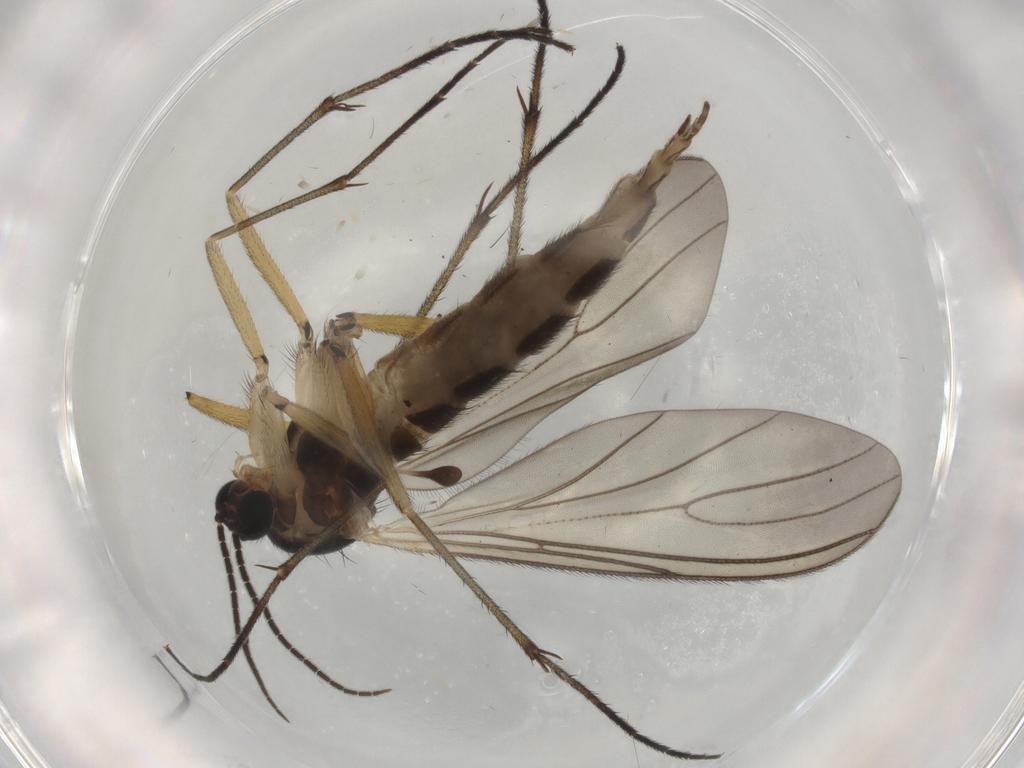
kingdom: Animalia
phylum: Arthropoda
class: Insecta
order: Diptera
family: Sciaridae
